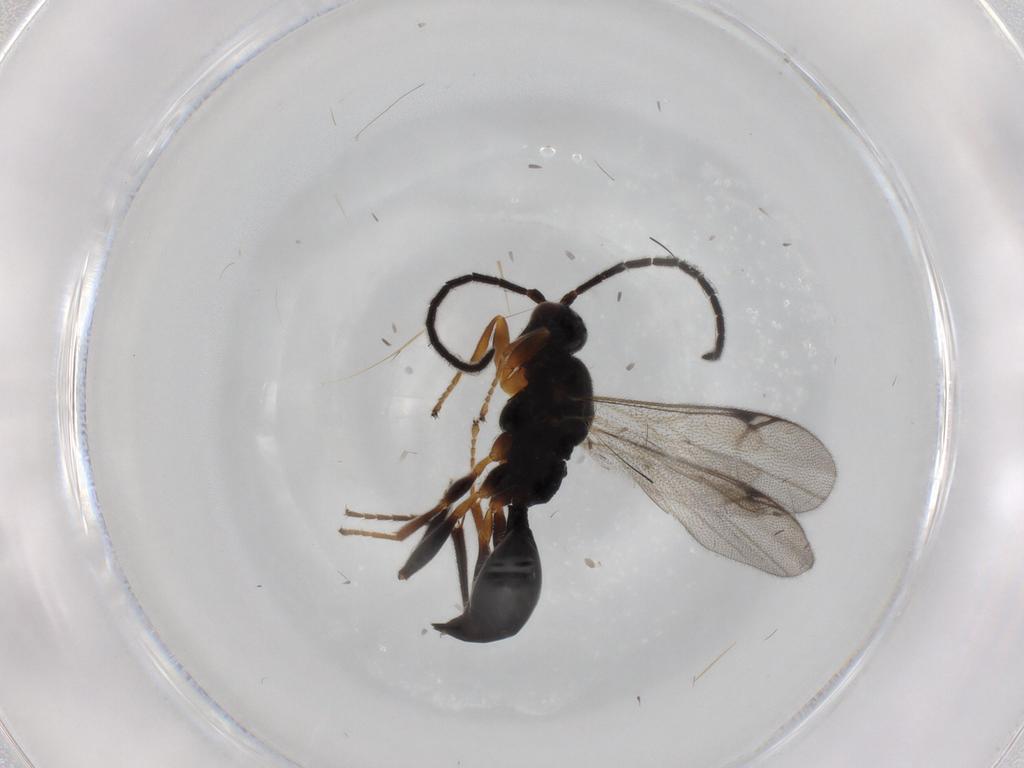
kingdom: Animalia
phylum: Arthropoda
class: Insecta
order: Hymenoptera
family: Proctotrupidae
